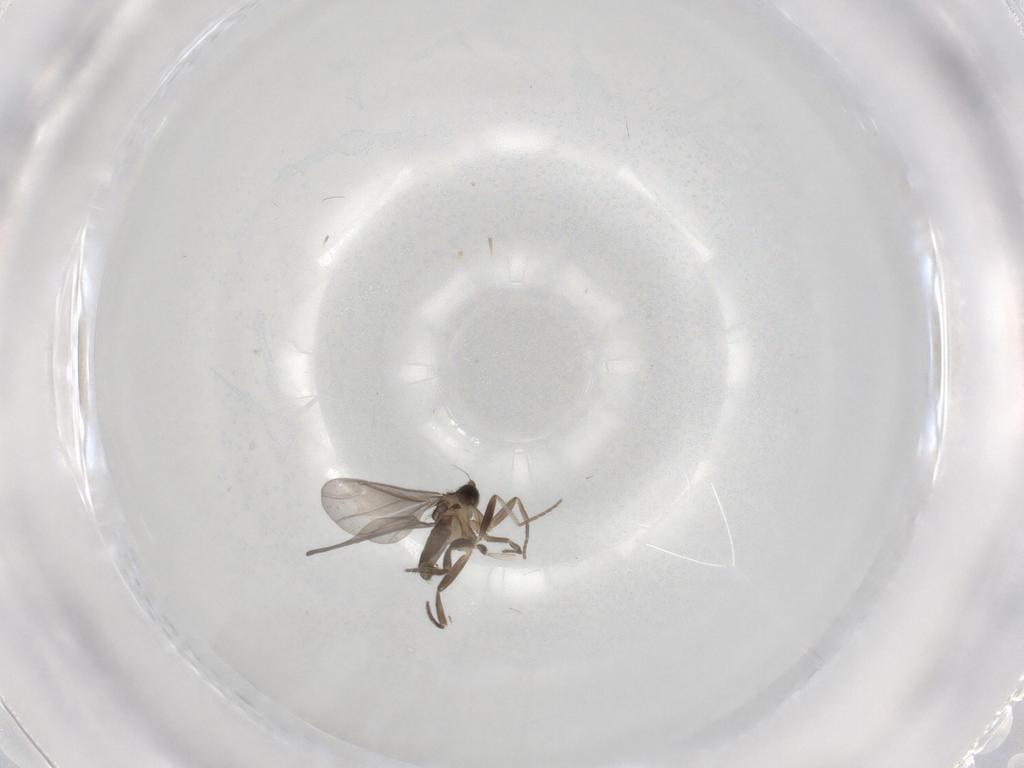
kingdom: Animalia
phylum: Arthropoda
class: Insecta
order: Diptera
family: Phoridae
